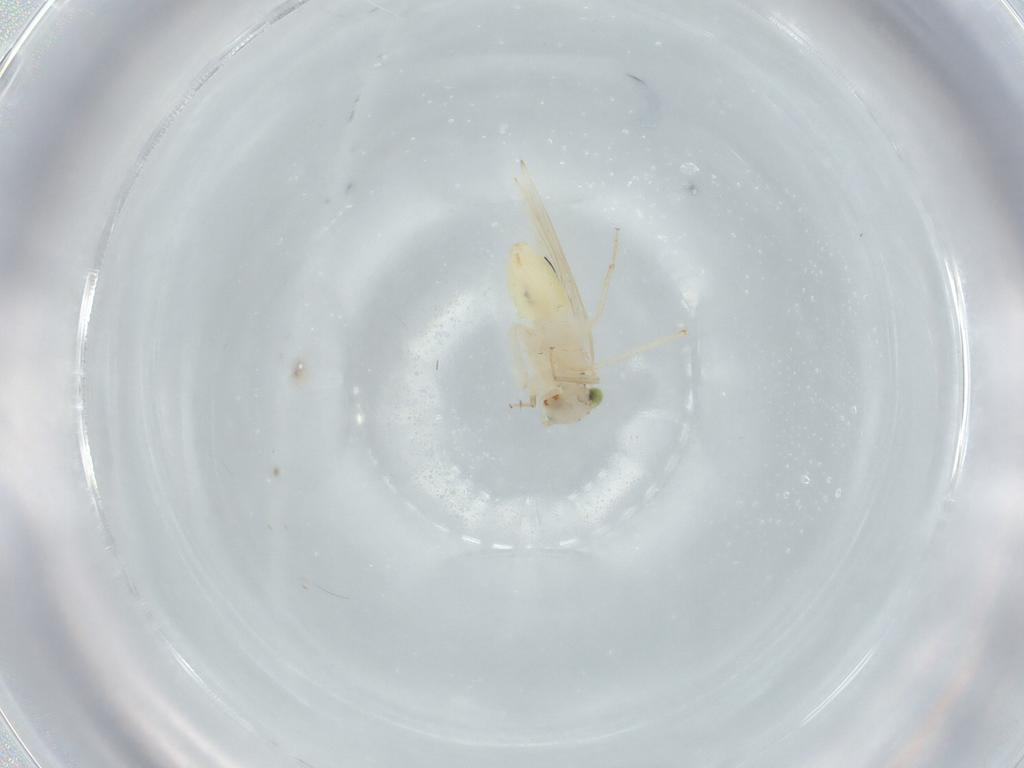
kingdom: Animalia
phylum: Arthropoda
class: Insecta
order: Psocodea
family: Lepidopsocidae
